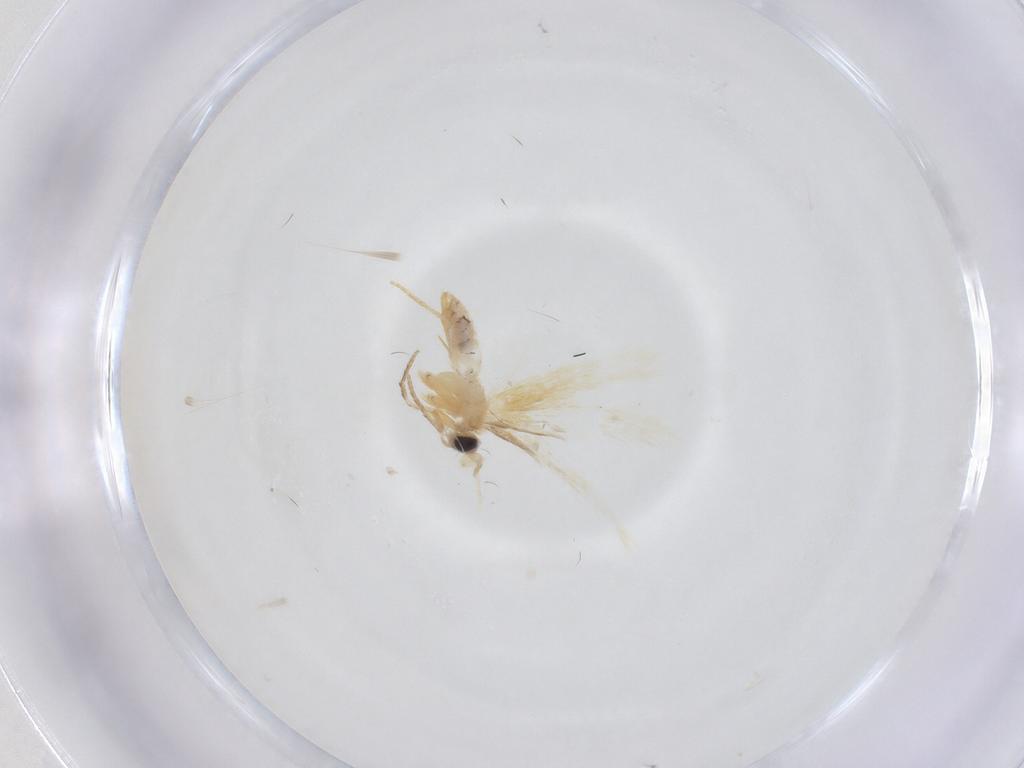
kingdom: Animalia
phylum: Arthropoda
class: Insecta
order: Lepidoptera
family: Nepticulidae
